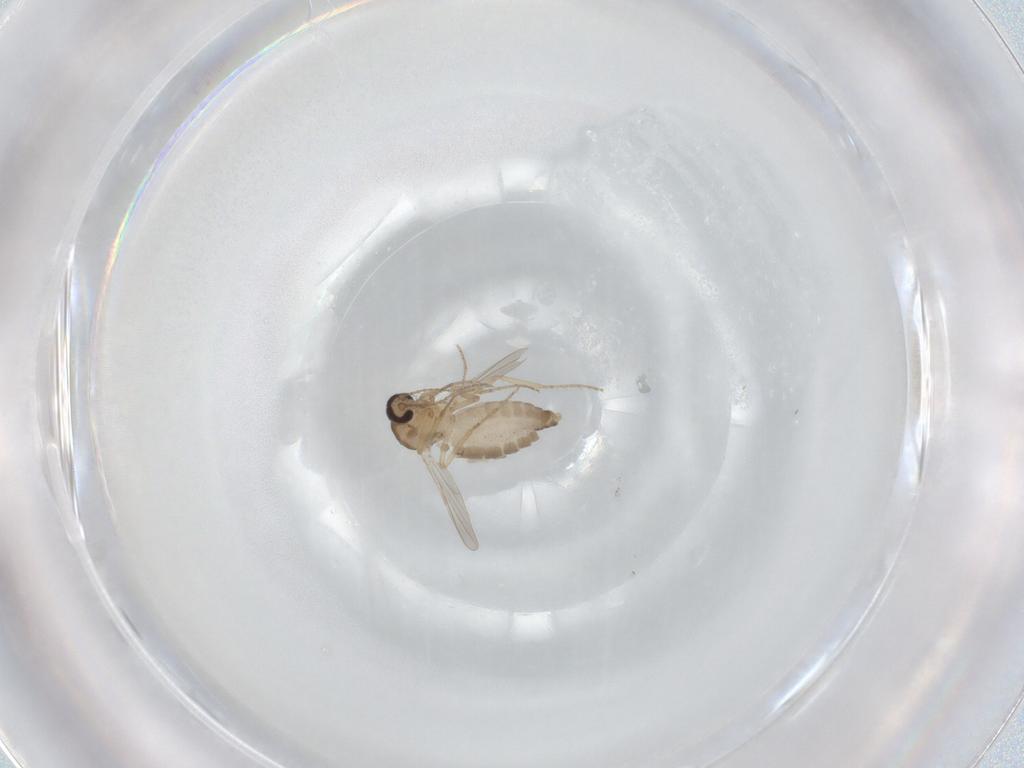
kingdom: Animalia
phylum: Arthropoda
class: Insecta
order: Diptera
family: Ceratopogonidae
